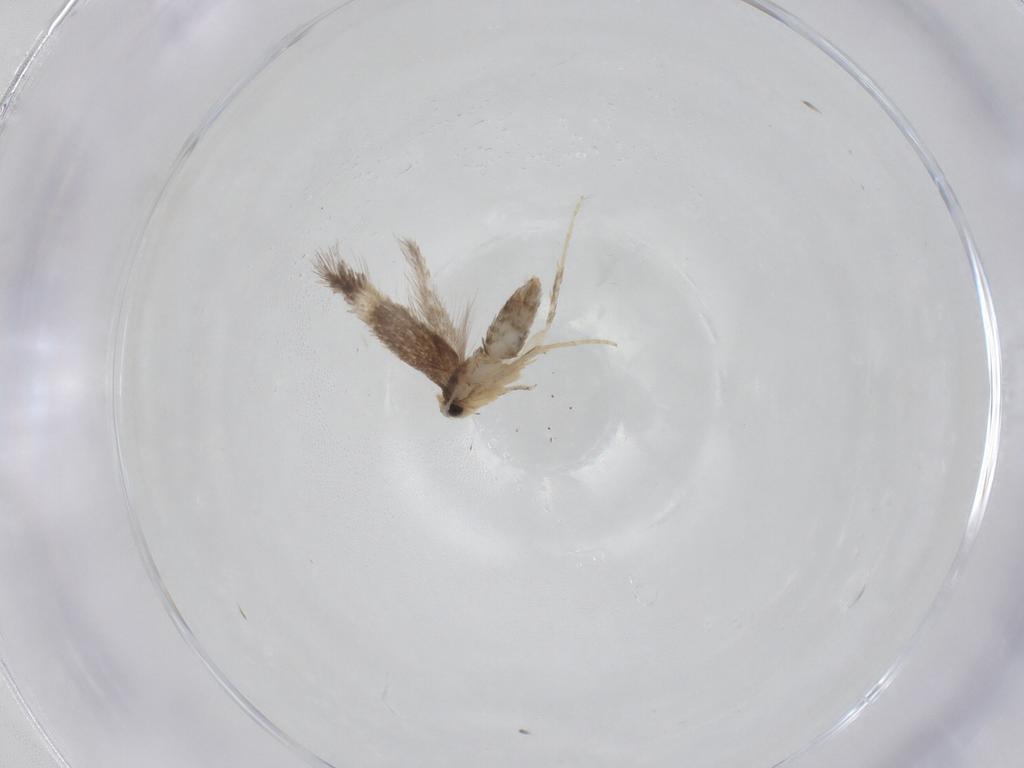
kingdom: Animalia
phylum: Arthropoda
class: Insecta
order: Lepidoptera
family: Nepticulidae
